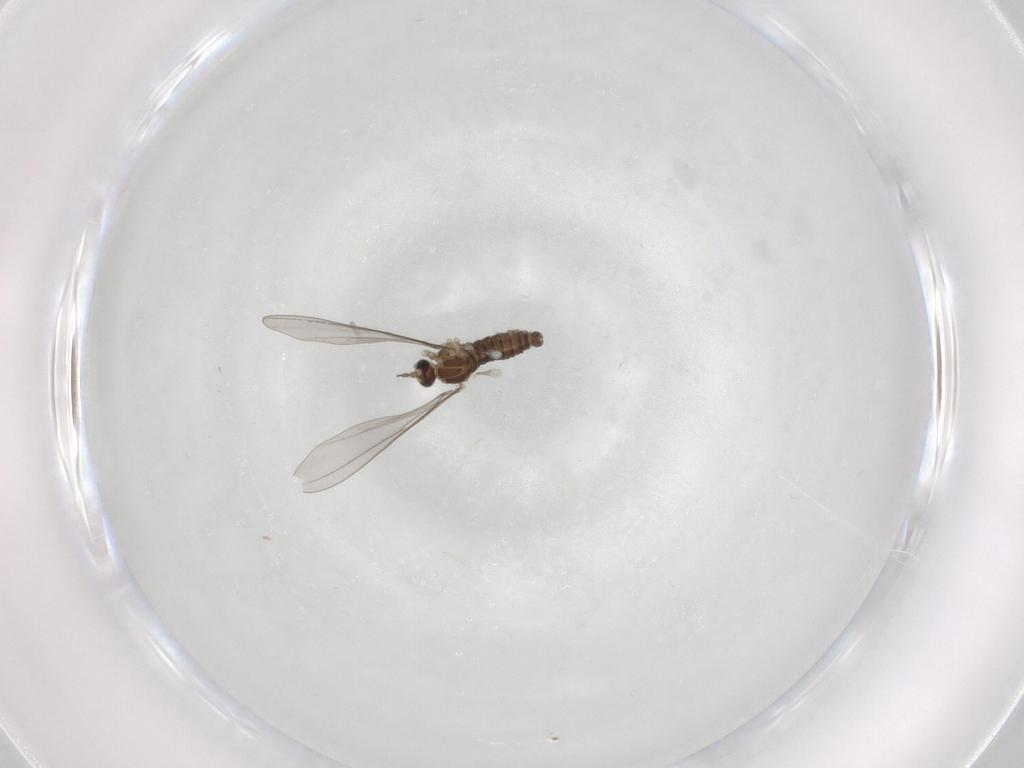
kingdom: Animalia
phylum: Arthropoda
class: Insecta
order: Diptera
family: Cecidomyiidae
